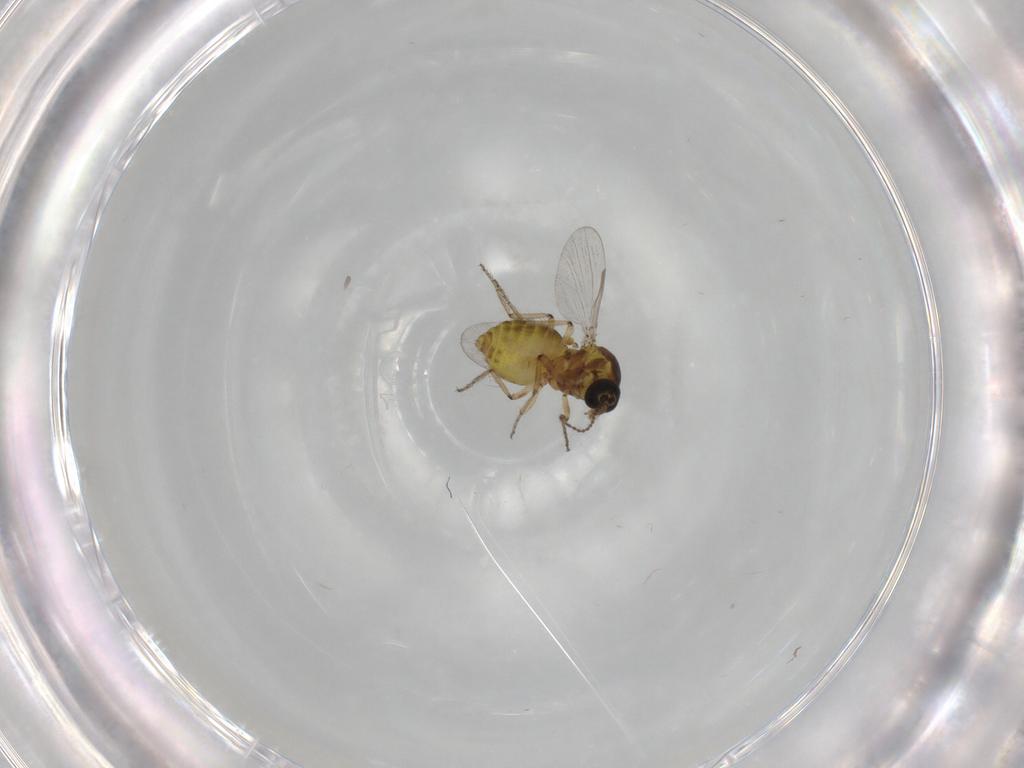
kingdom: Animalia
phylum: Arthropoda
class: Insecta
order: Diptera
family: Ceratopogonidae
